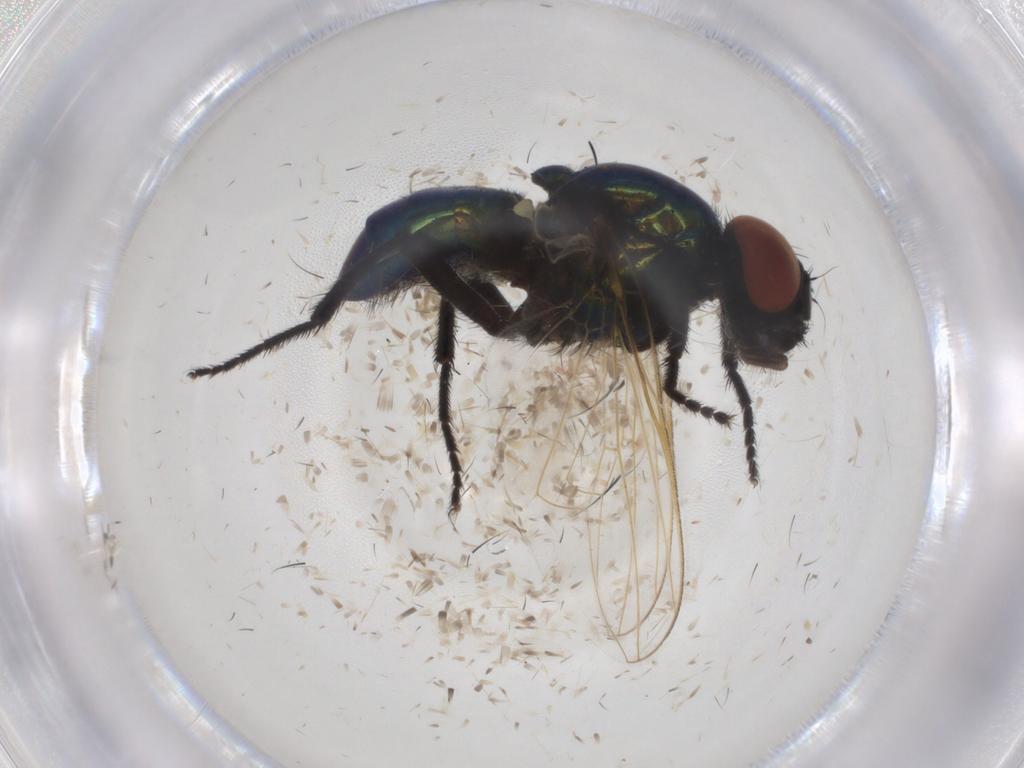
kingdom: Animalia
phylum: Arthropoda
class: Insecta
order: Diptera
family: Muscidae
